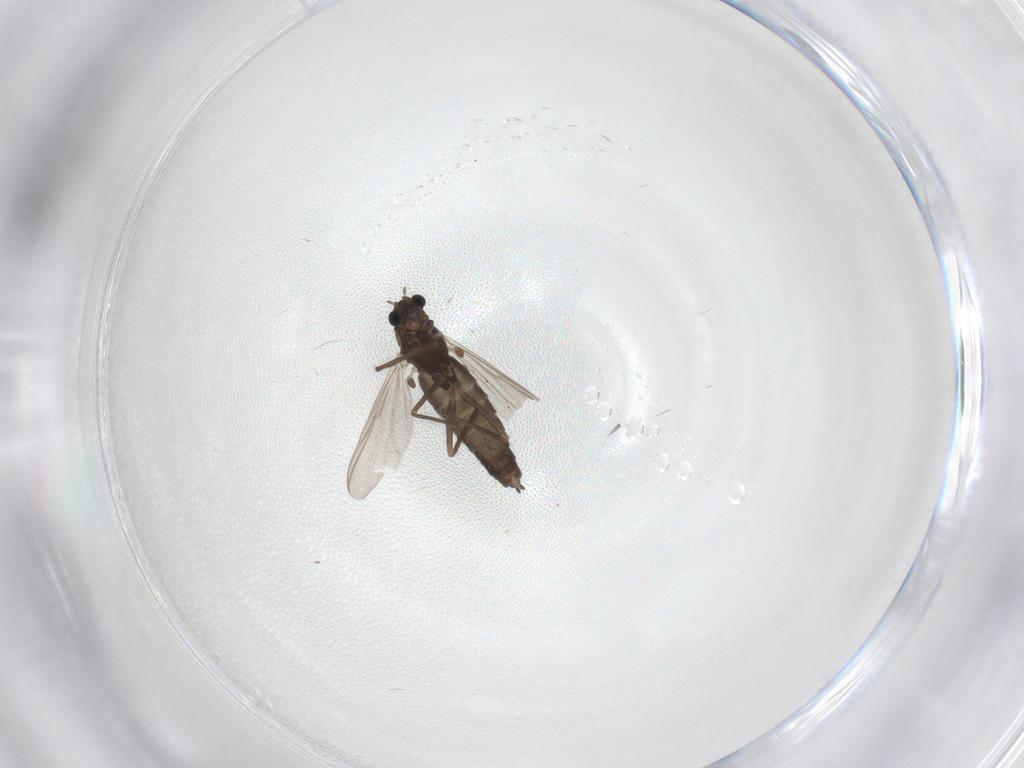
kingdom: Animalia
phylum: Arthropoda
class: Insecta
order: Diptera
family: Chironomidae
